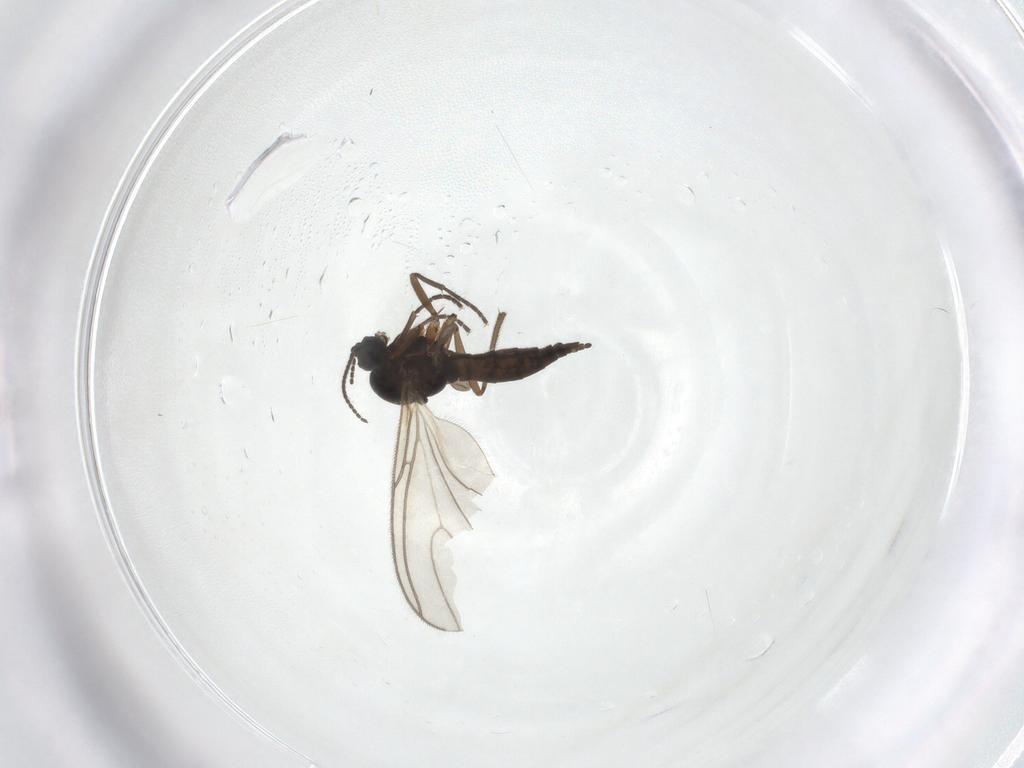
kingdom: Animalia
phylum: Arthropoda
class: Insecta
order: Diptera
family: Sciaridae
